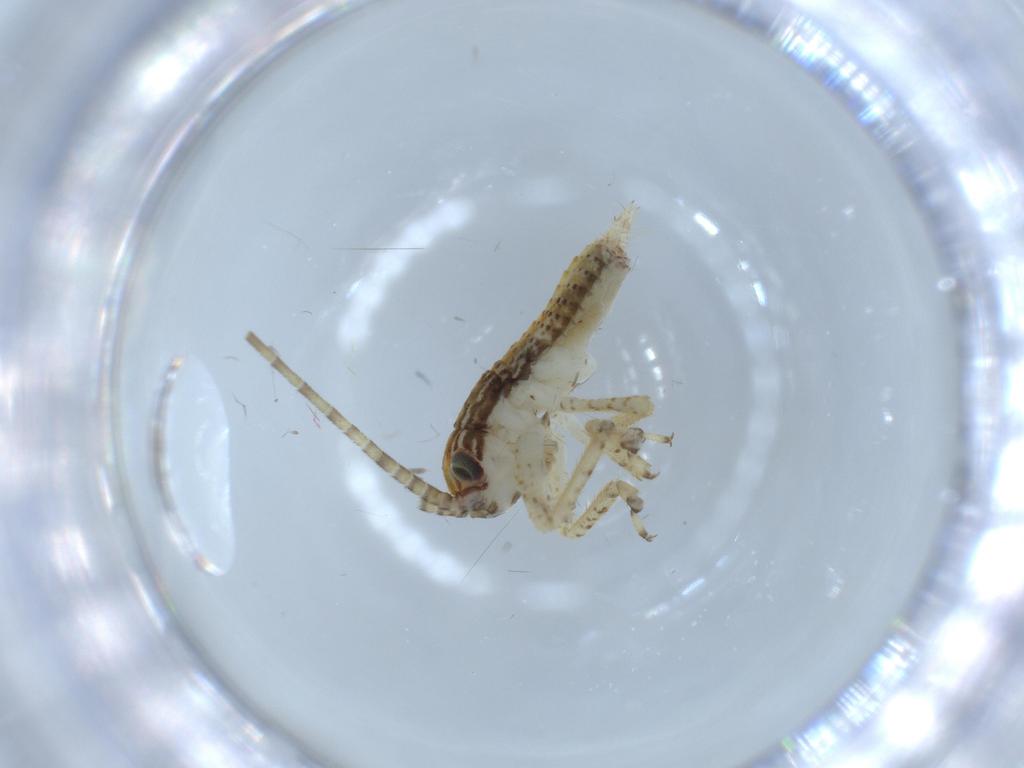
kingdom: Animalia
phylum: Arthropoda
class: Insecta
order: Orthoptera
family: Gryllidae
